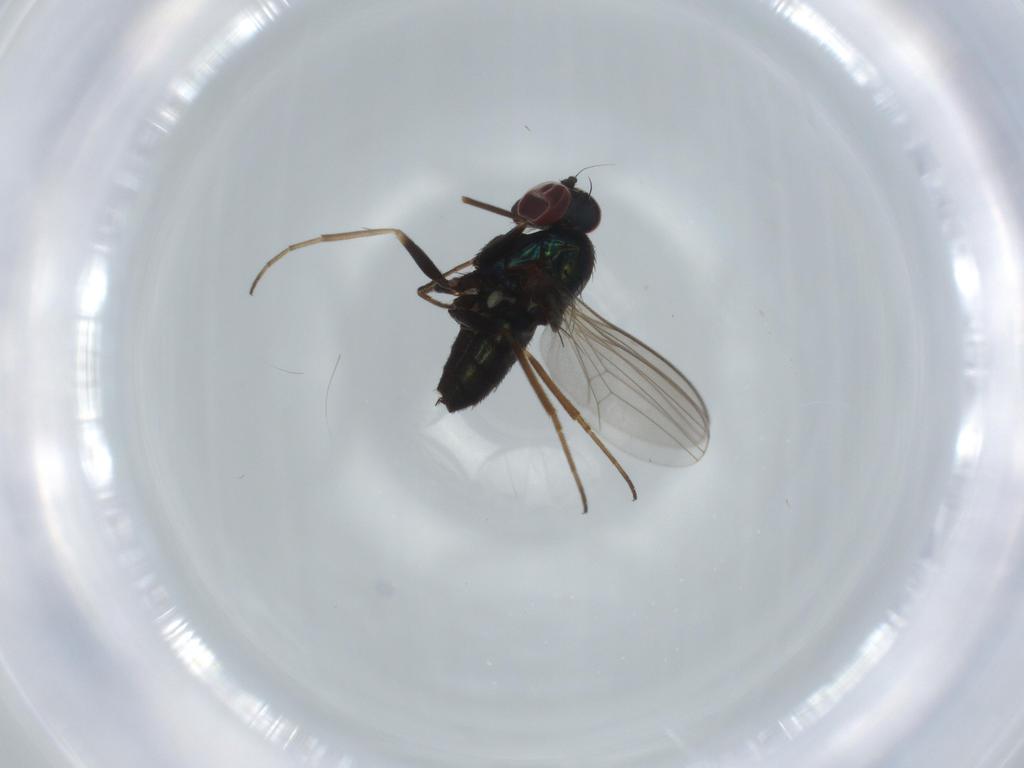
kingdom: Animalia
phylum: Arthropoda
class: Insecta
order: Diptera
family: Dolichopodidae
